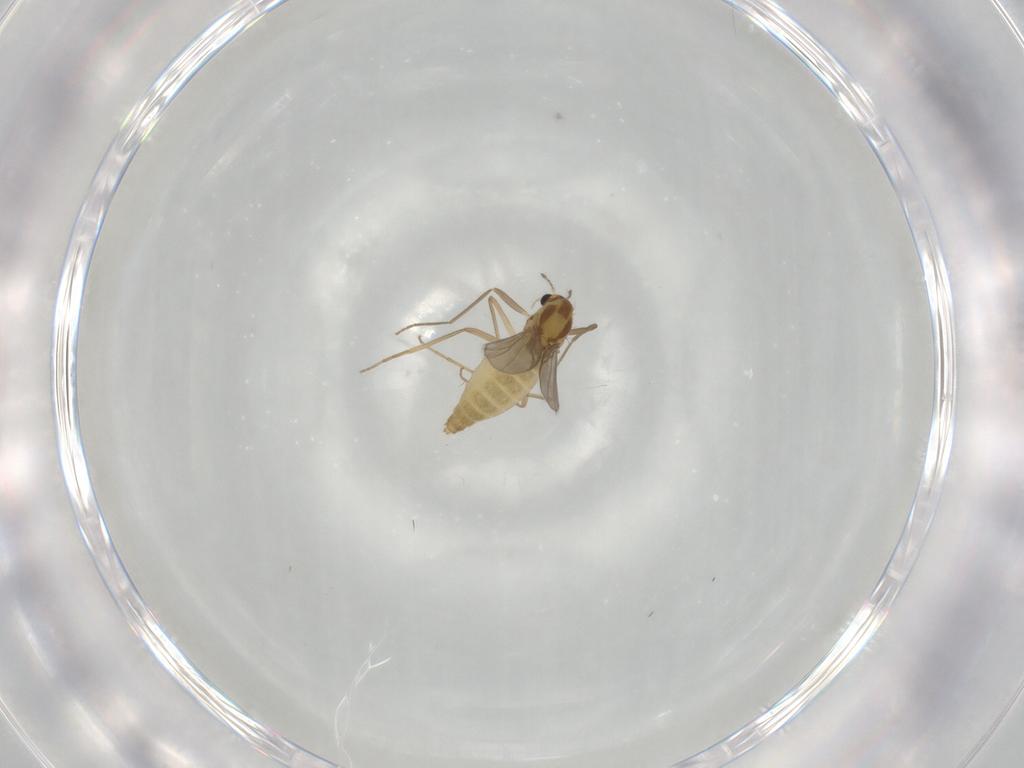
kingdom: Animalia
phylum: Arthropoda
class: Insecta
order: Diptera
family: Chironomidae
